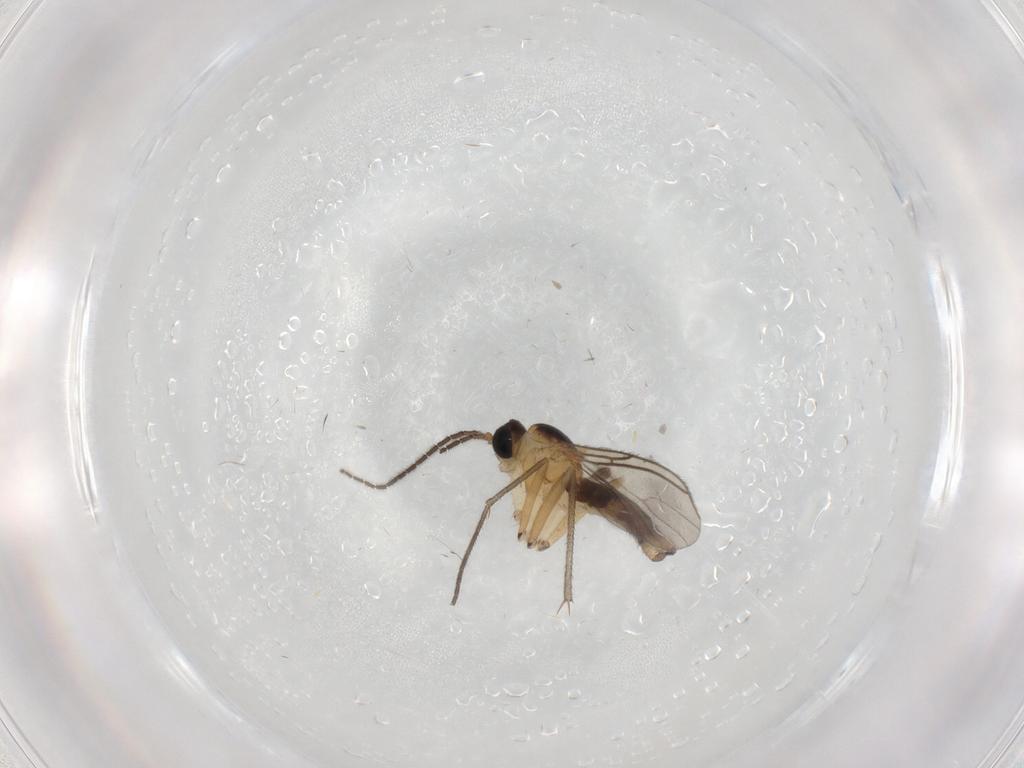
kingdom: Animalia
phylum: Arthropoda
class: Insecta
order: Diptera
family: Sciaridae
